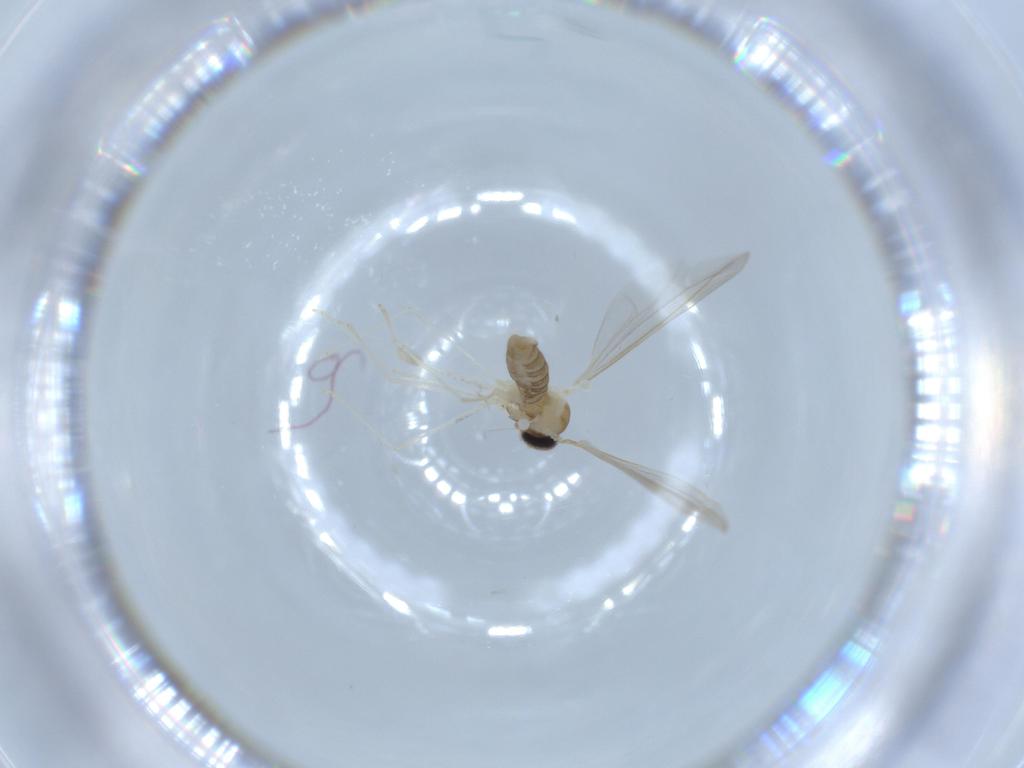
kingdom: Animalia
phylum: Arthropoda
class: Insecta
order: Diptera
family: Cecidomyiidae
